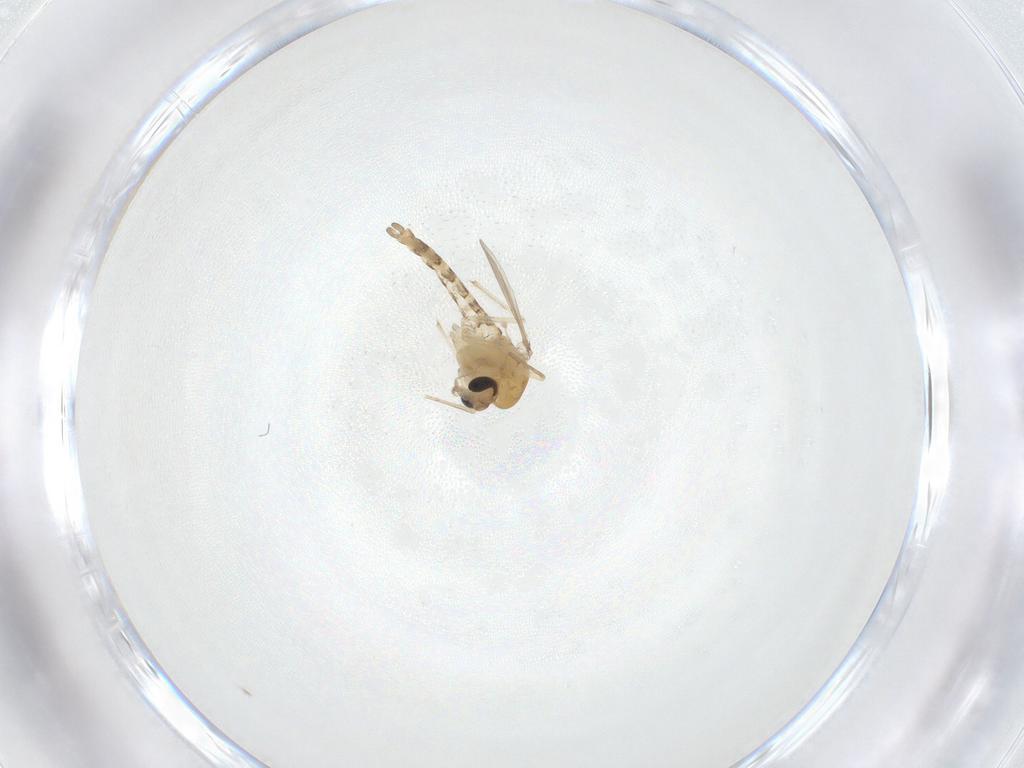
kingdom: Animalia
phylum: Arthropoda
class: Insecta
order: Diptera
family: Chironomidae
